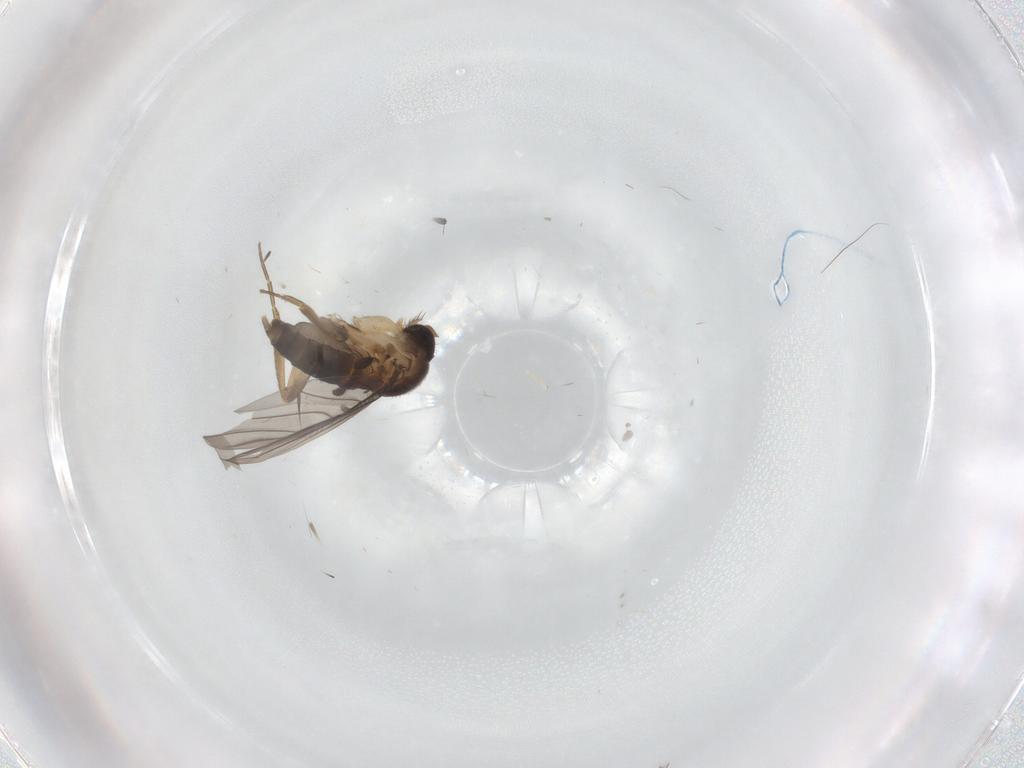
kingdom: Animalia
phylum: Arthropoda
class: Insecta
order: Diptera
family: Phoridae
